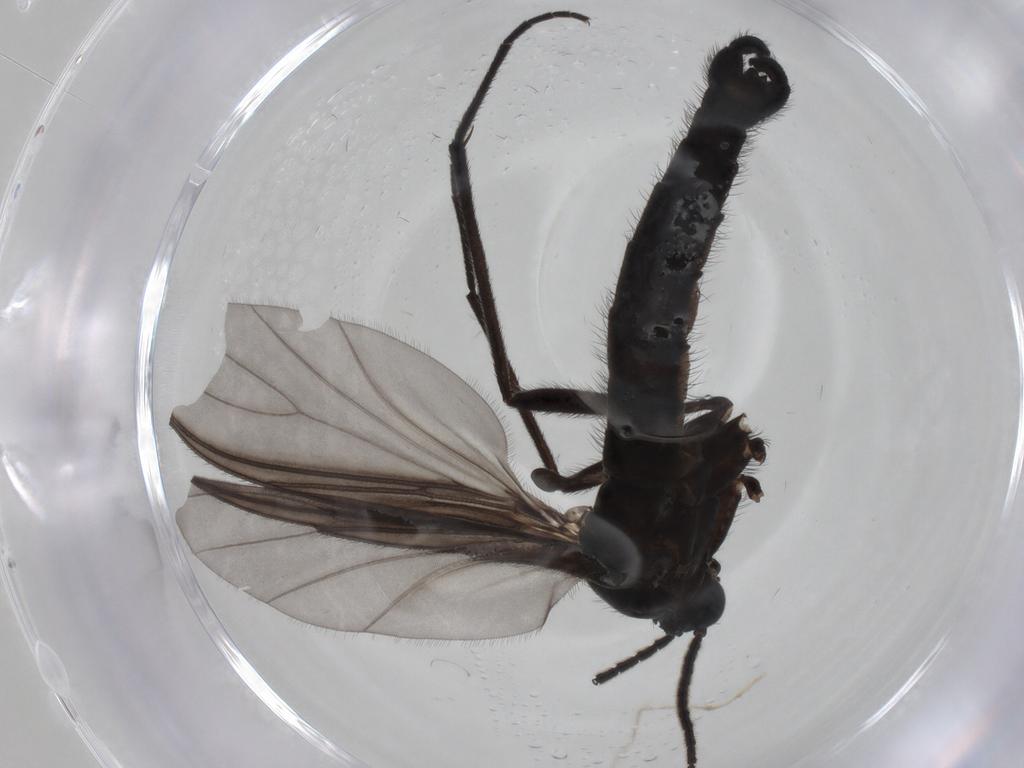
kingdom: Animalia
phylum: Arthropoda
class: Insecta
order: Diptera
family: Sciaridae
